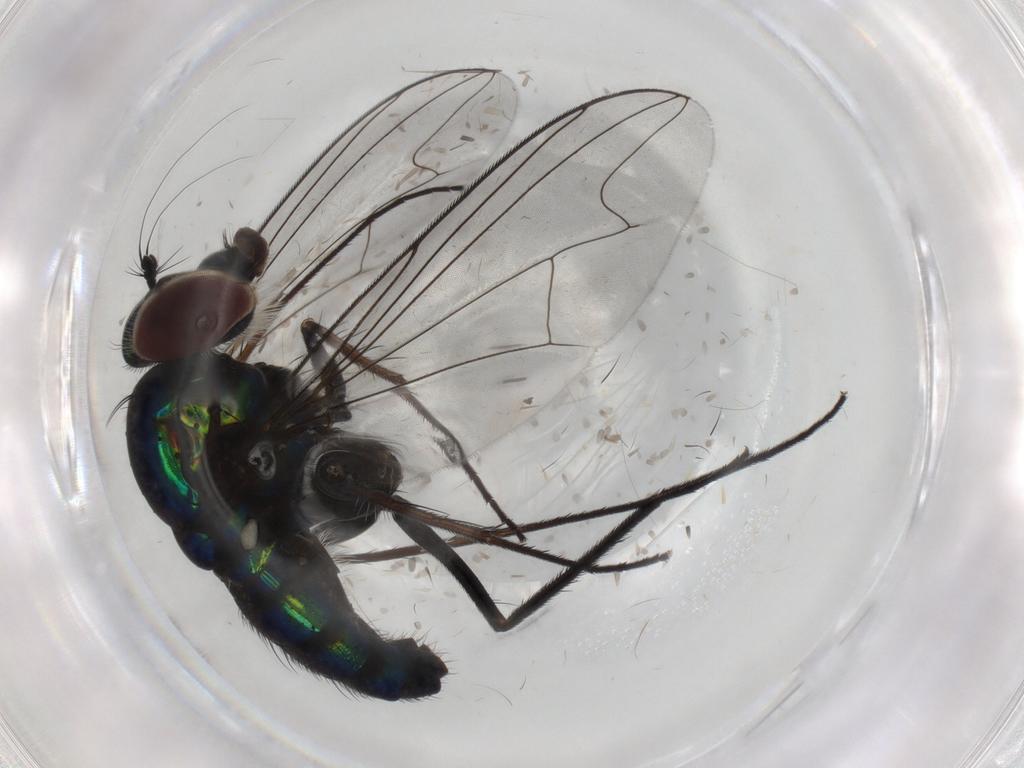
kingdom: Animalia
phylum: Arthropoda
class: Insecta
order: Diptera
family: Dolichopodidae
